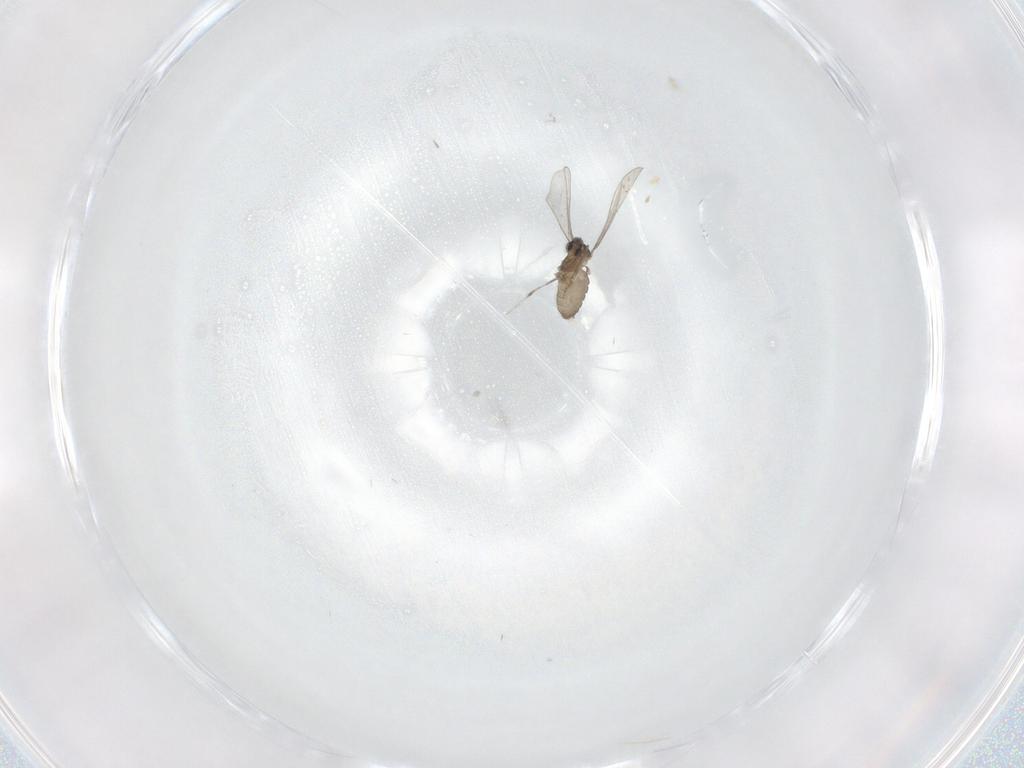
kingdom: Animalia
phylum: Arthropoda
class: Insecta
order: Diptera
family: Cecidomyiidae
